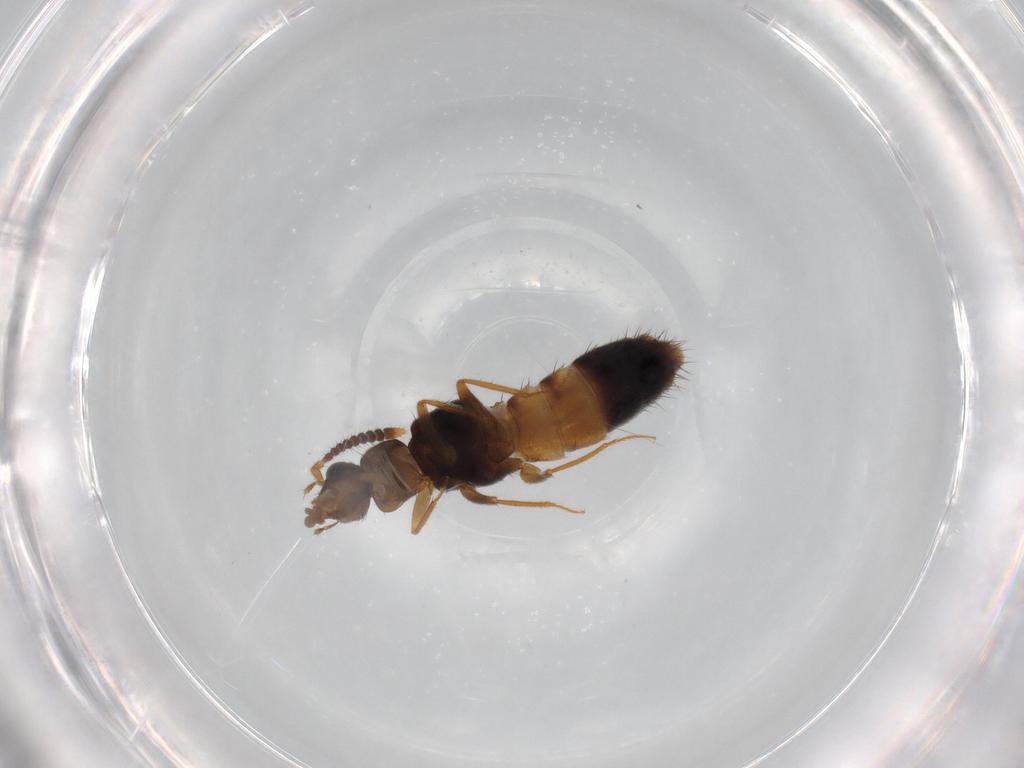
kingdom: Animalia
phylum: Arthropoda
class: Insecta
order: Coleoptera
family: Staphylinidae
